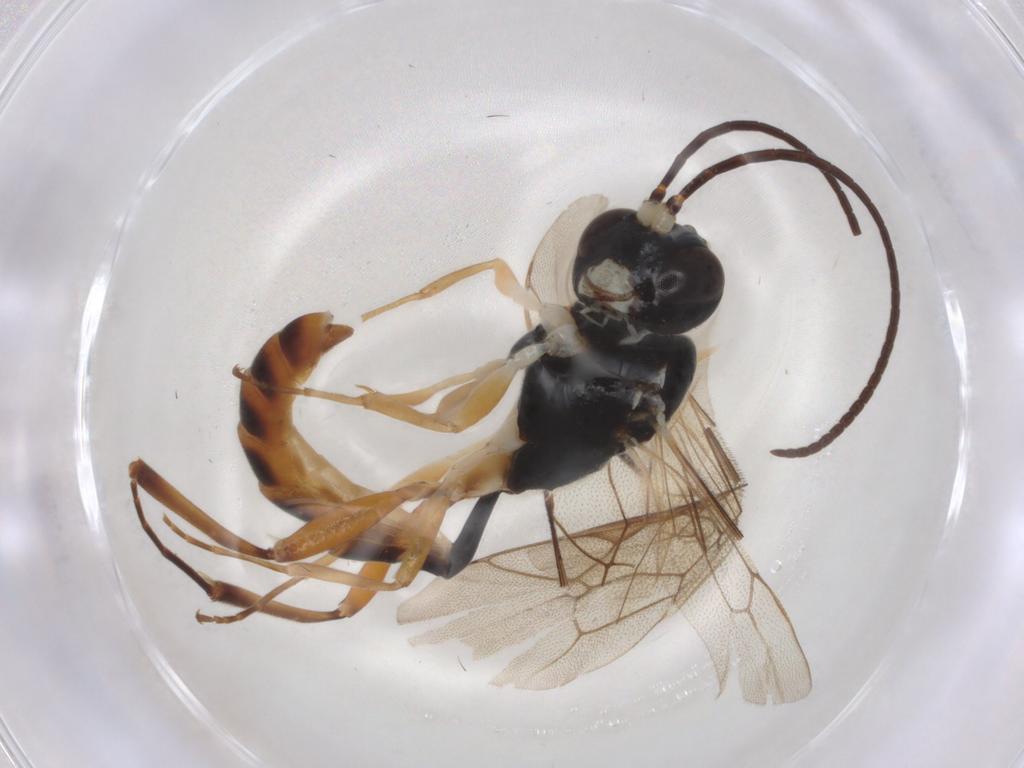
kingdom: Animalia
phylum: Arthropoda
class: Insecta
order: Hymenoptera
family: Ichneumonidae
